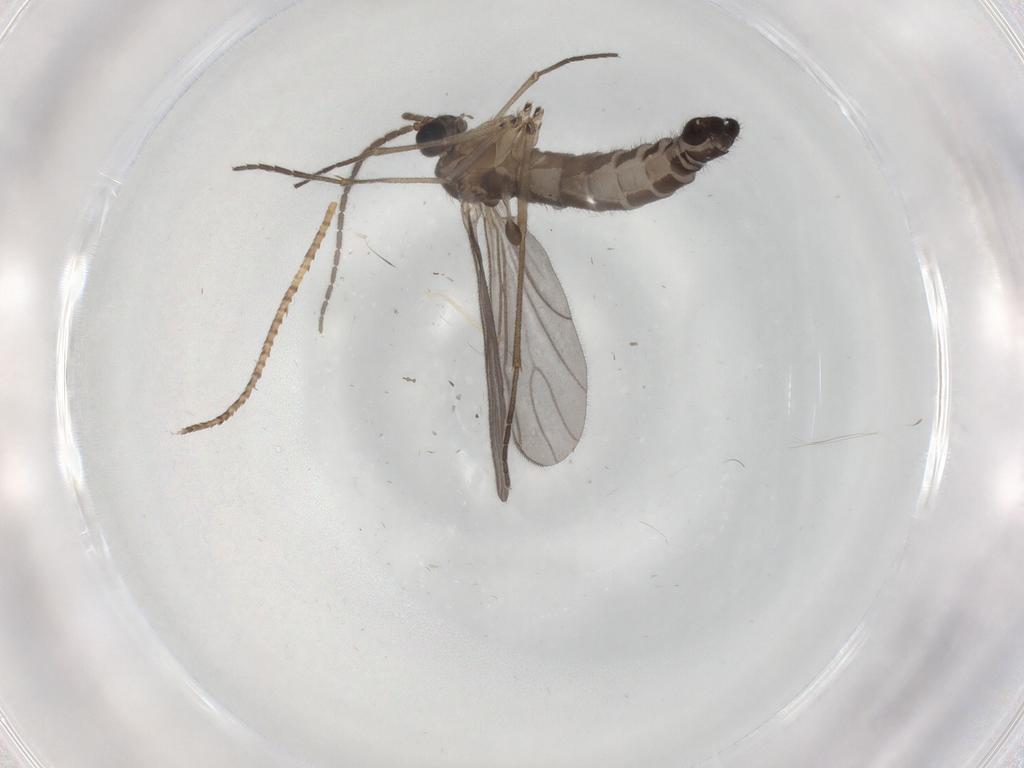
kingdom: Animalia
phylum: Arthropoda
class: Insecta
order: Diptera
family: Sciaridae
